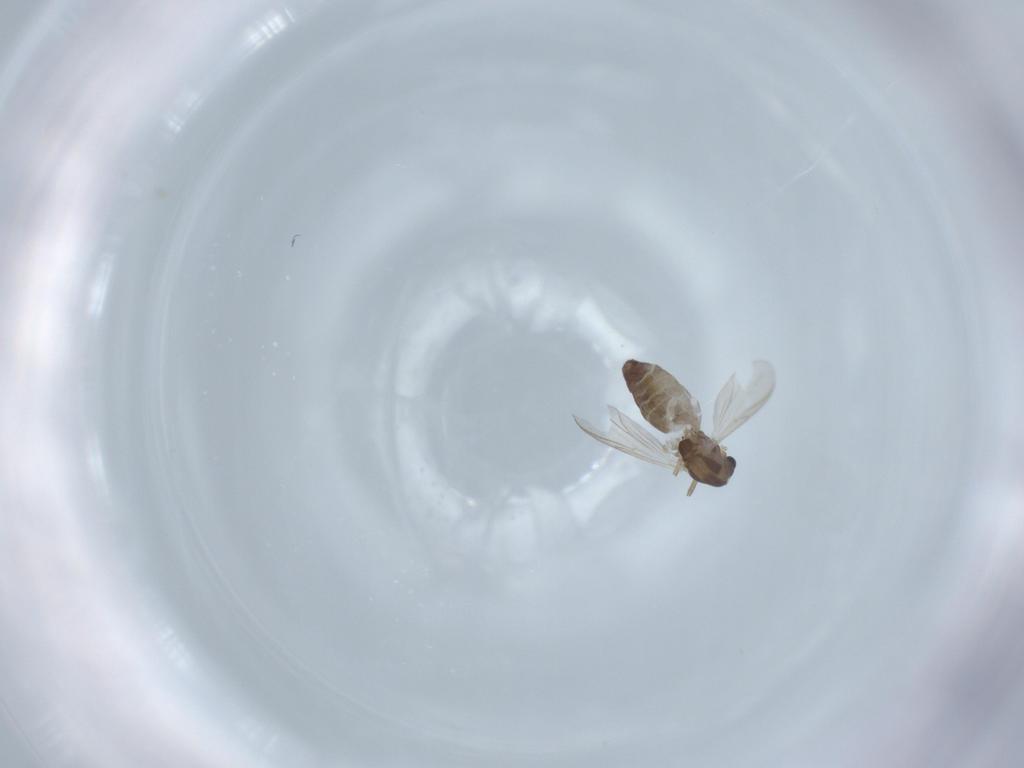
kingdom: Animalia
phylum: Arthropoda
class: Insecta
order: Diptera
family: Chironomidae
